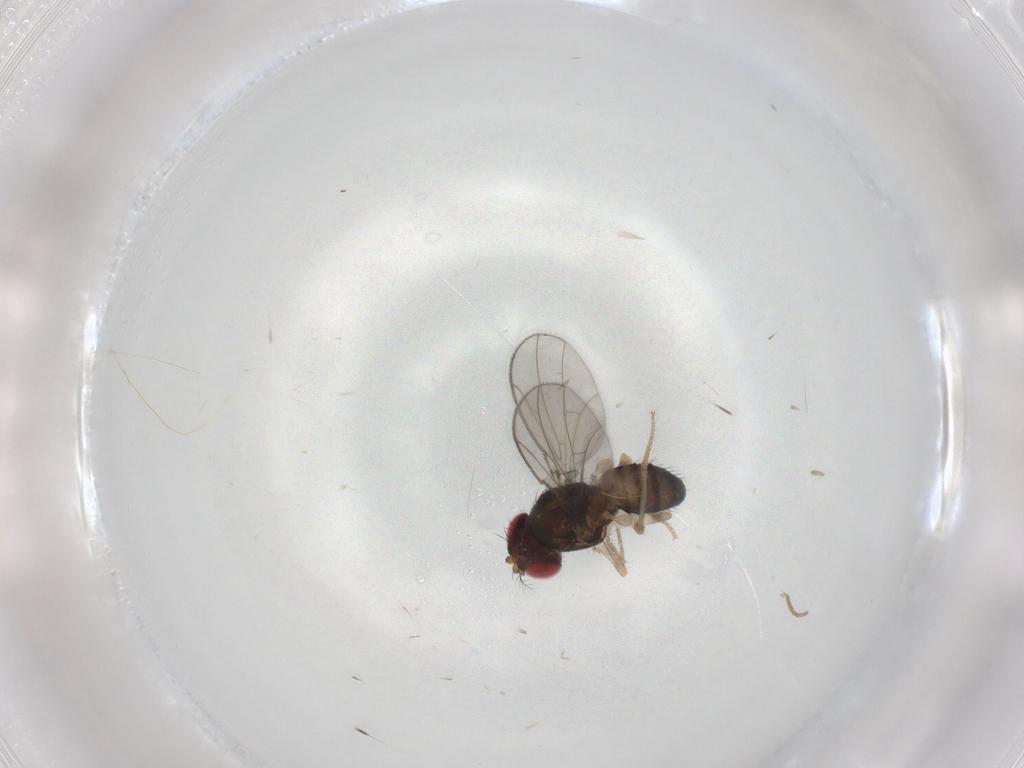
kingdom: Animalia
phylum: Arthropoda
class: Insecta
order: Diptera
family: Drosophilidae
